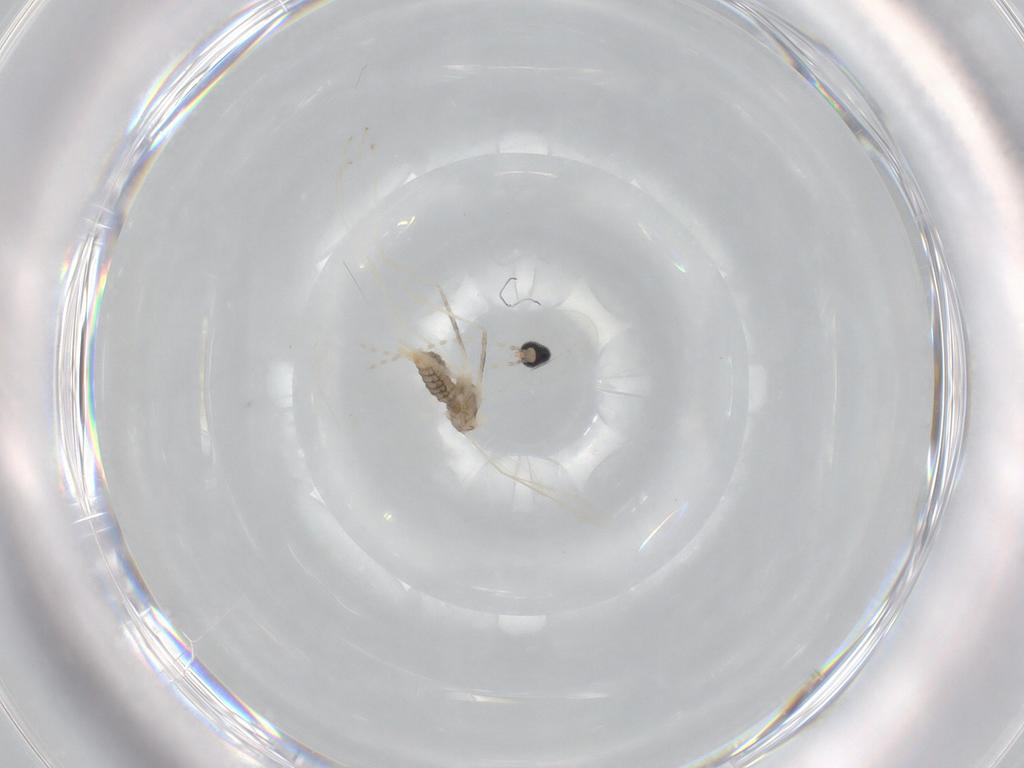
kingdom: Animalia
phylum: Arthropoda
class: Insecta
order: Diptera
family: Cecidomyiidae
